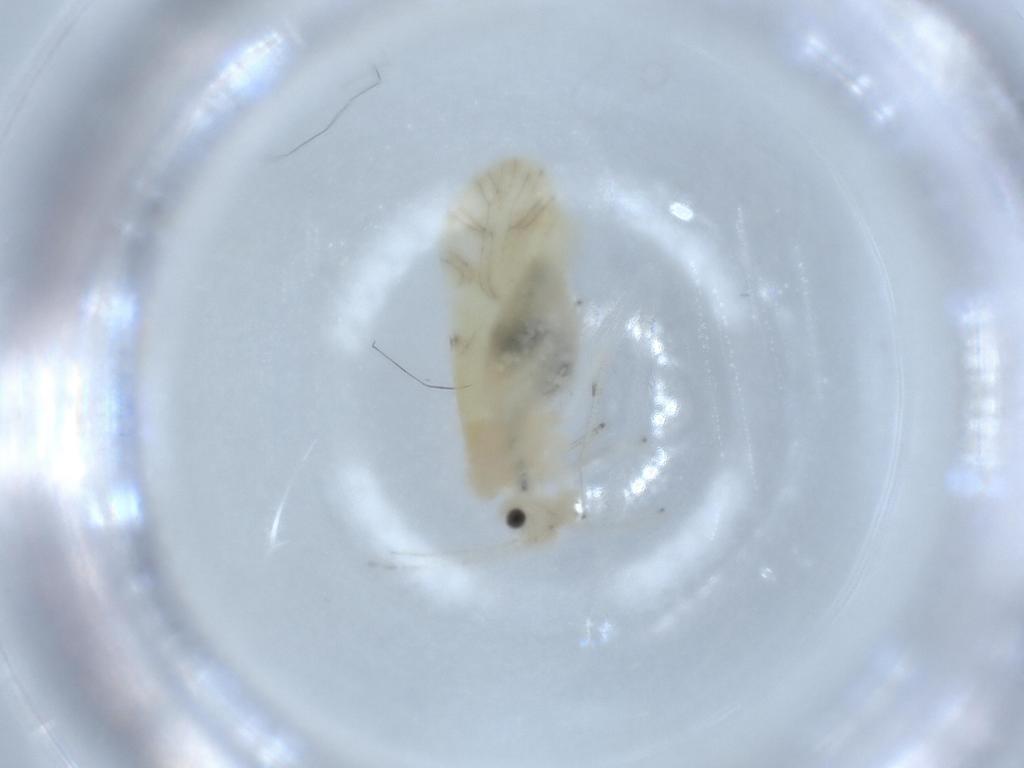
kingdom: Animalia
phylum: Arthropoda
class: Insecta
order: Psocodea
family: Caeciliusidae
